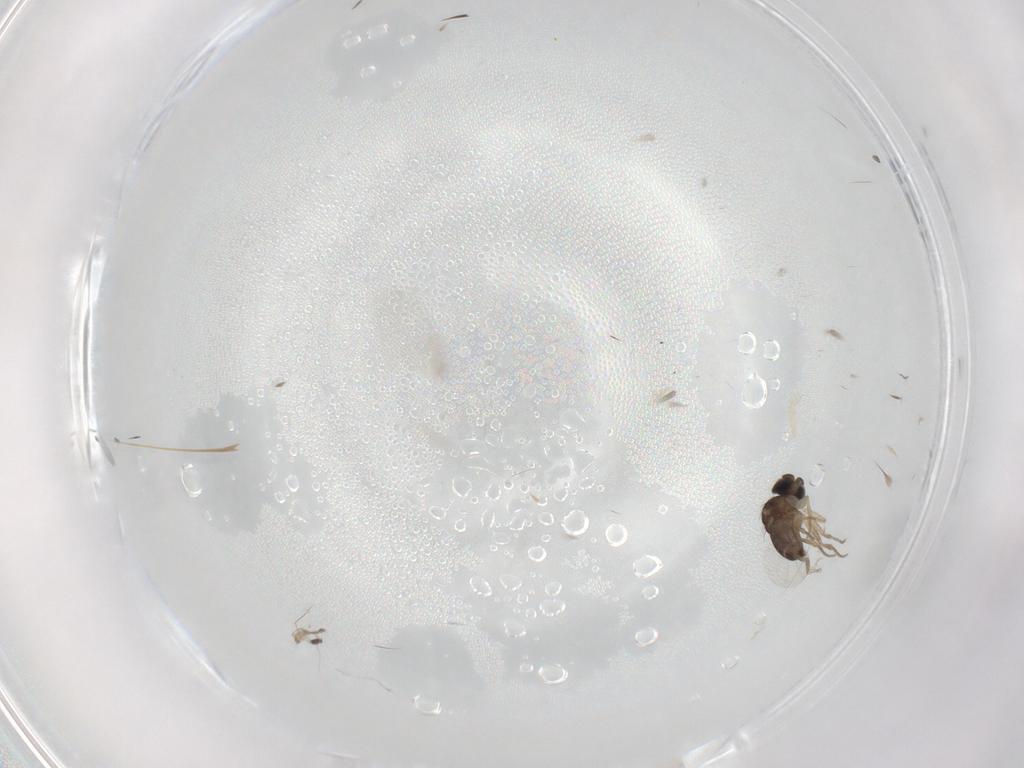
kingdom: Animalia
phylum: Arthropoda
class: Insecta
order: Diptera
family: Phoridae
